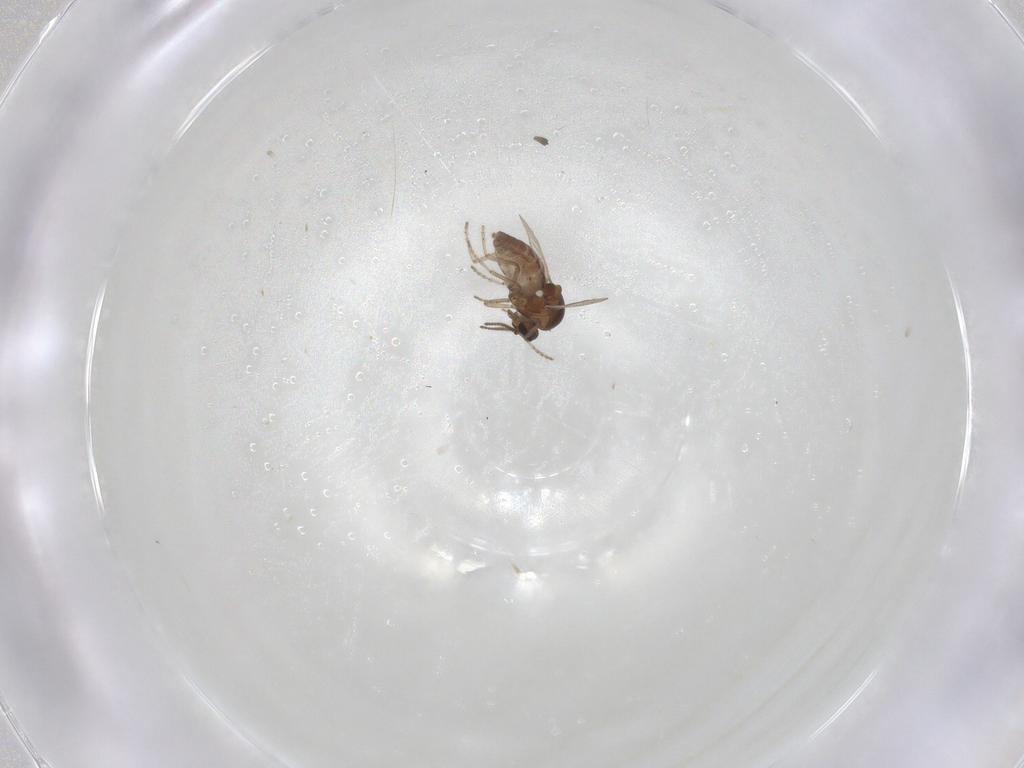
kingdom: Animalia
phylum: Arthropoda
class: Insecta
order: Diptera
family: Ceratopogonidae
